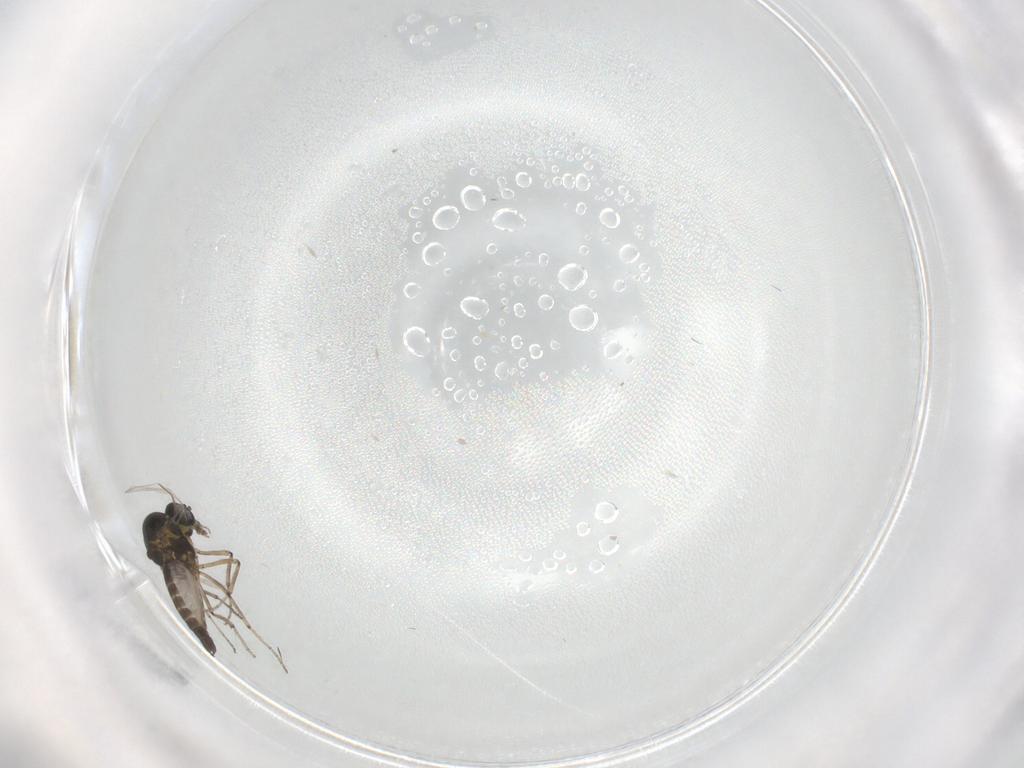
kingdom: Animalia
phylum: Arthropoda
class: Insecta
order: Diptera
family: Ceratopogonidae
